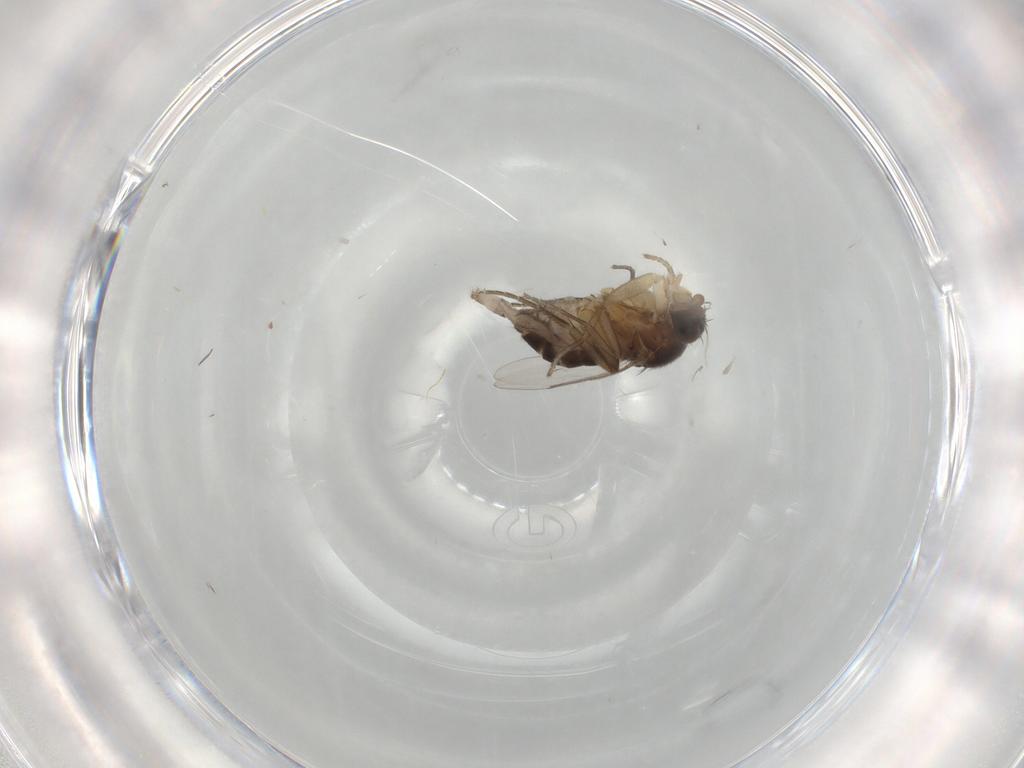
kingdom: Animalia
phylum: Arthropoda
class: Insecta
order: Diptera
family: Phoridae
